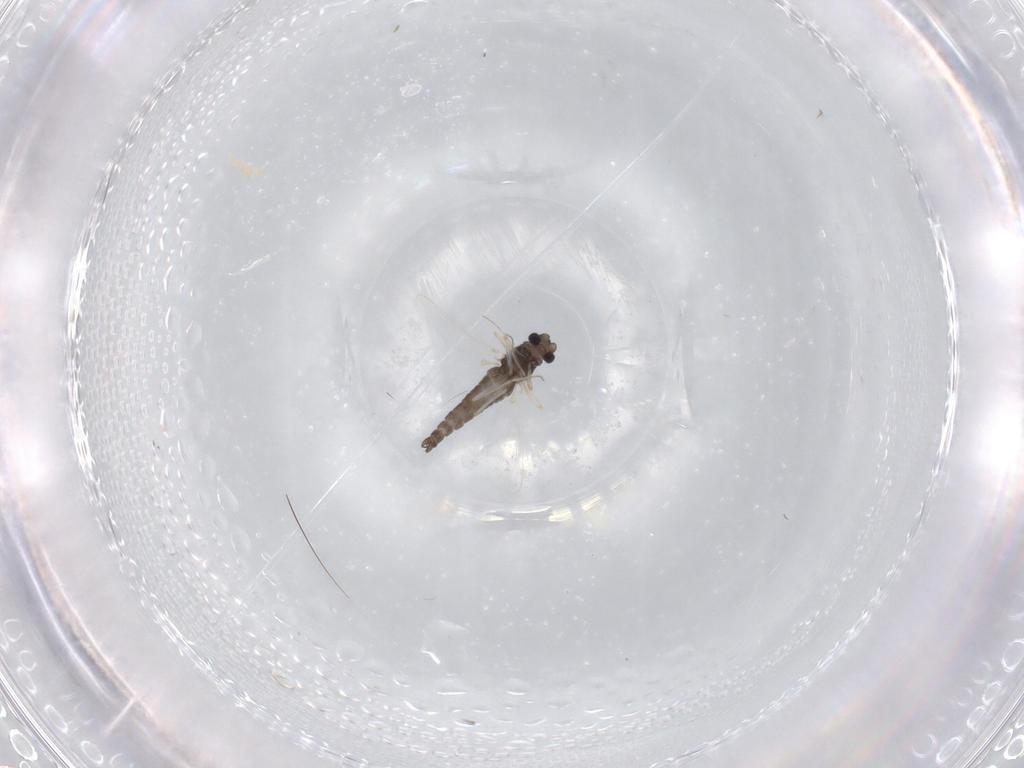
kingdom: Animalia
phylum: Arthropoda
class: Insecta
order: Diptera
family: Chironomidae
